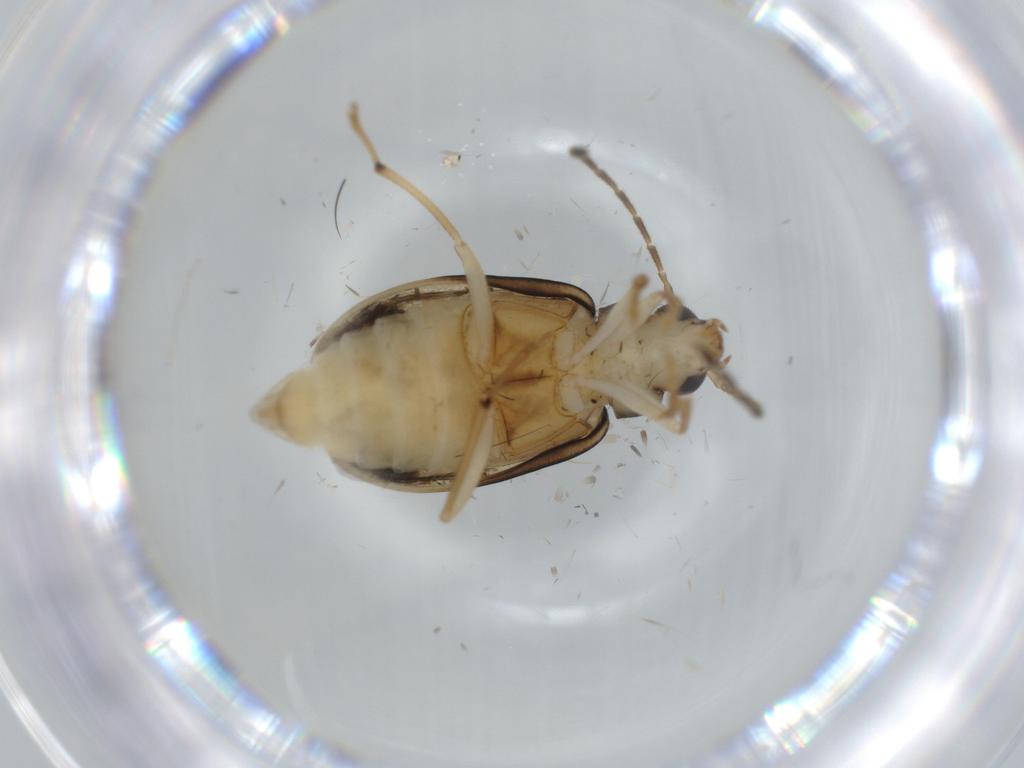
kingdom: Animalia
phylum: Arthropoda
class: Insecta
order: Coleoptera
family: Chrysomelidae
